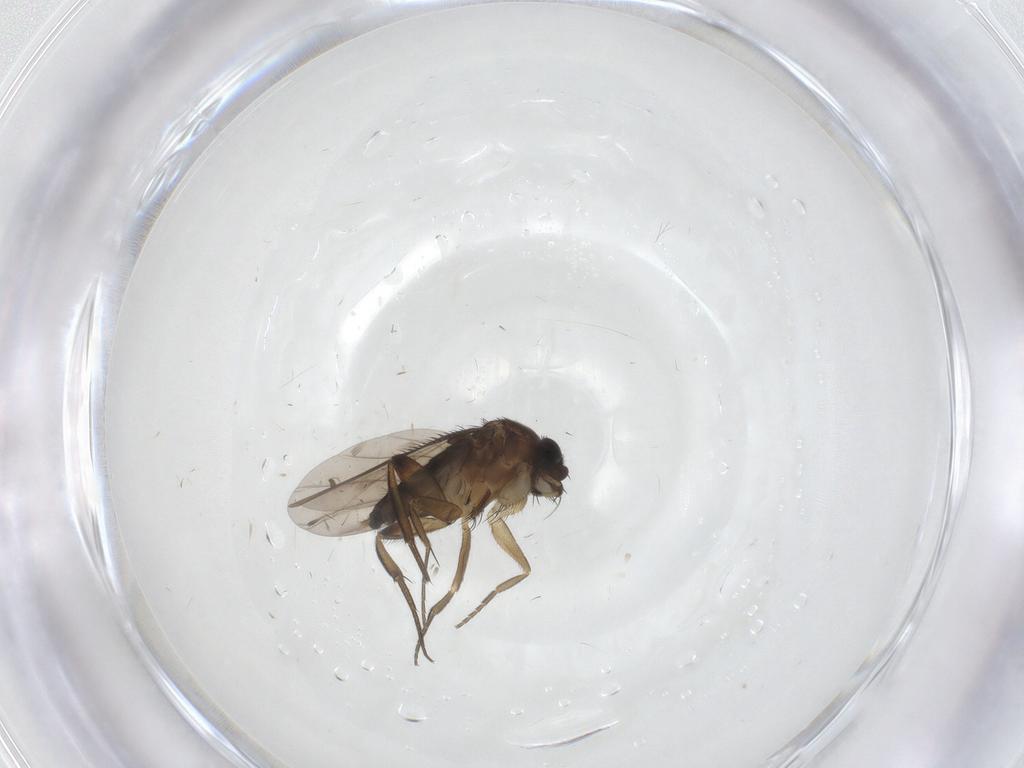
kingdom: Animalia
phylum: Arthropoda
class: Insecta
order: Diptera
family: Phoridae
